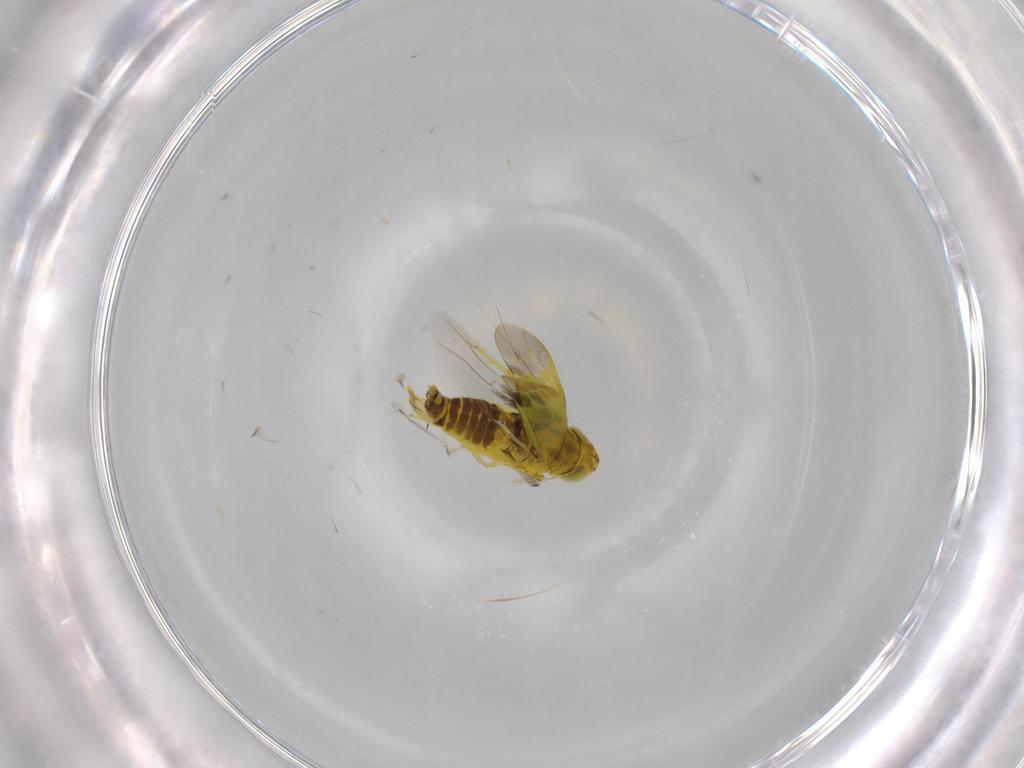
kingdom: Animalia
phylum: Arthropoda
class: Insecta
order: Hemiptera
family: Cicadellidae
